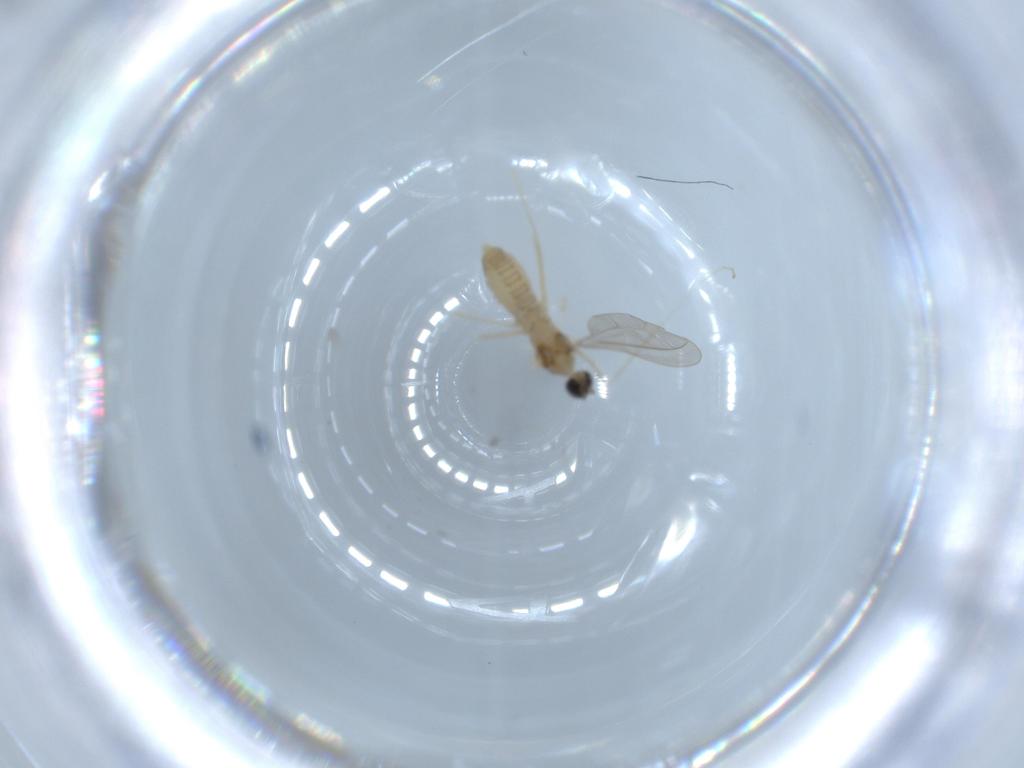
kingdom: Animalia
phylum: Arthropoda
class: Insecta
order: Diptera
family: Cecidomyiidae
